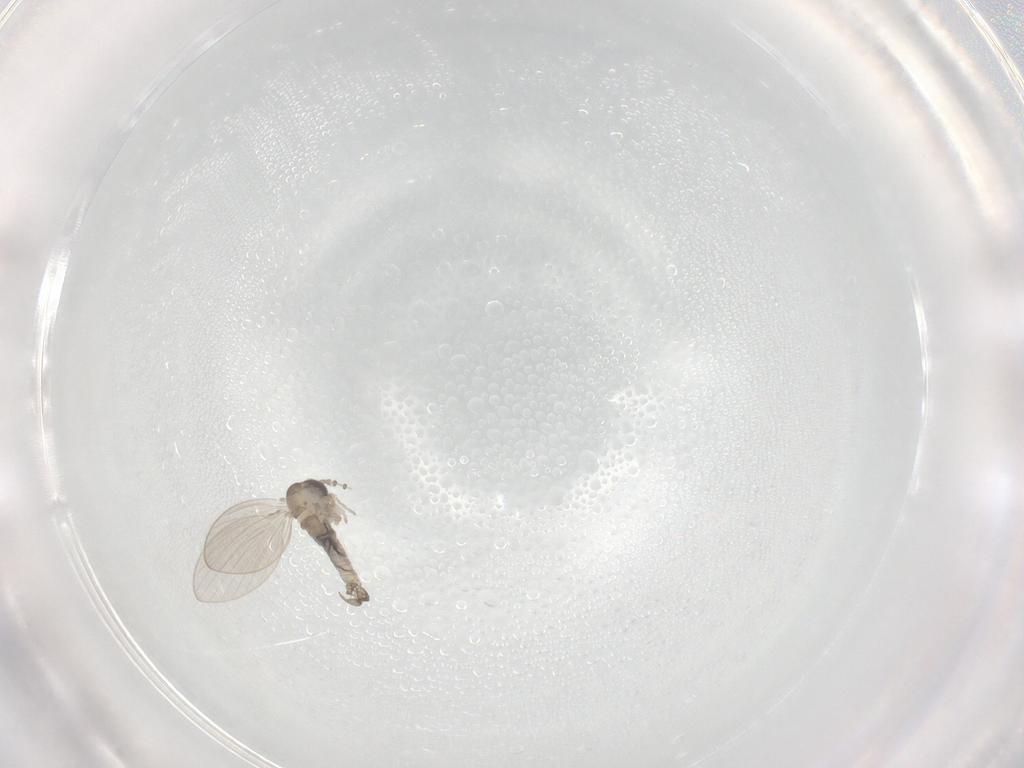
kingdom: Animalia
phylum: Arthropoda
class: Insecta
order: Diptera
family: Psychodidae
